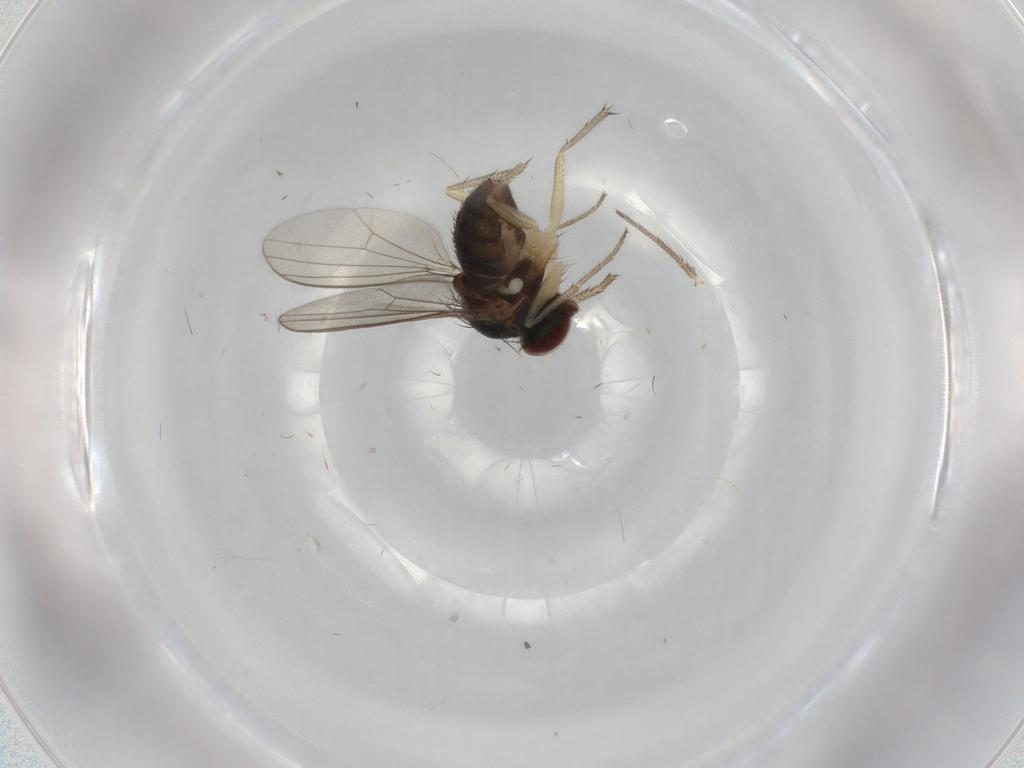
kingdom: Animalia
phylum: Arthropoda
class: Insecta
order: Diptera
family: Dolichopodidae
